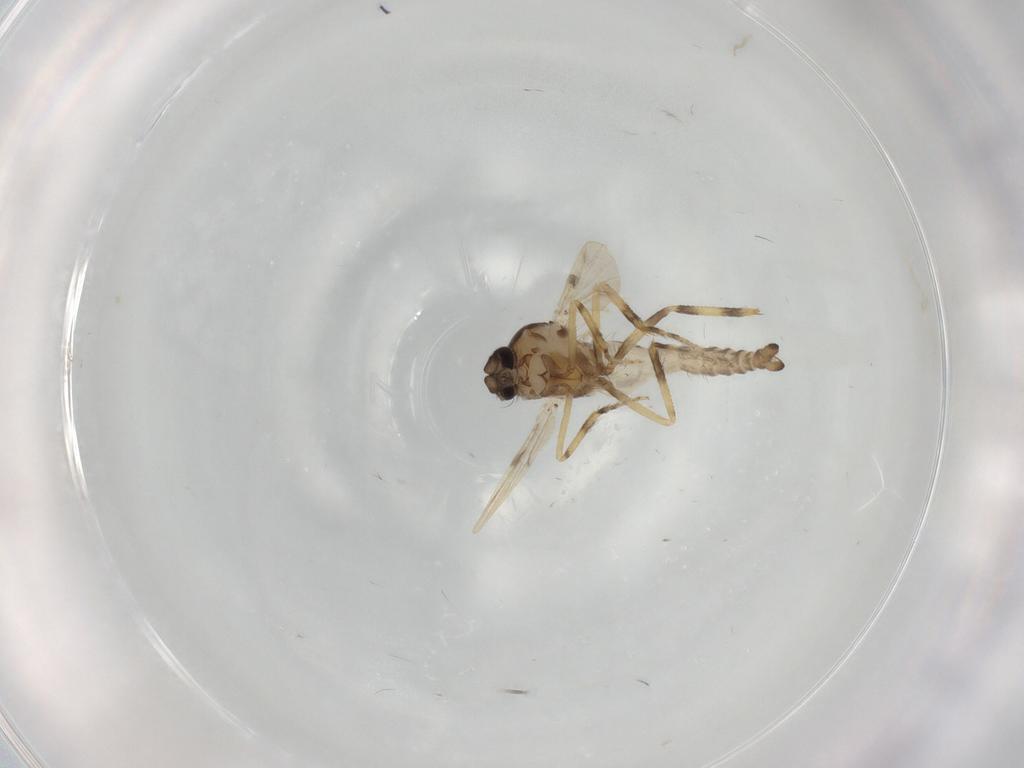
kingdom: Animalia
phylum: Arthropoda
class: Insecta
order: Diptera
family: Ceratopogonidae
